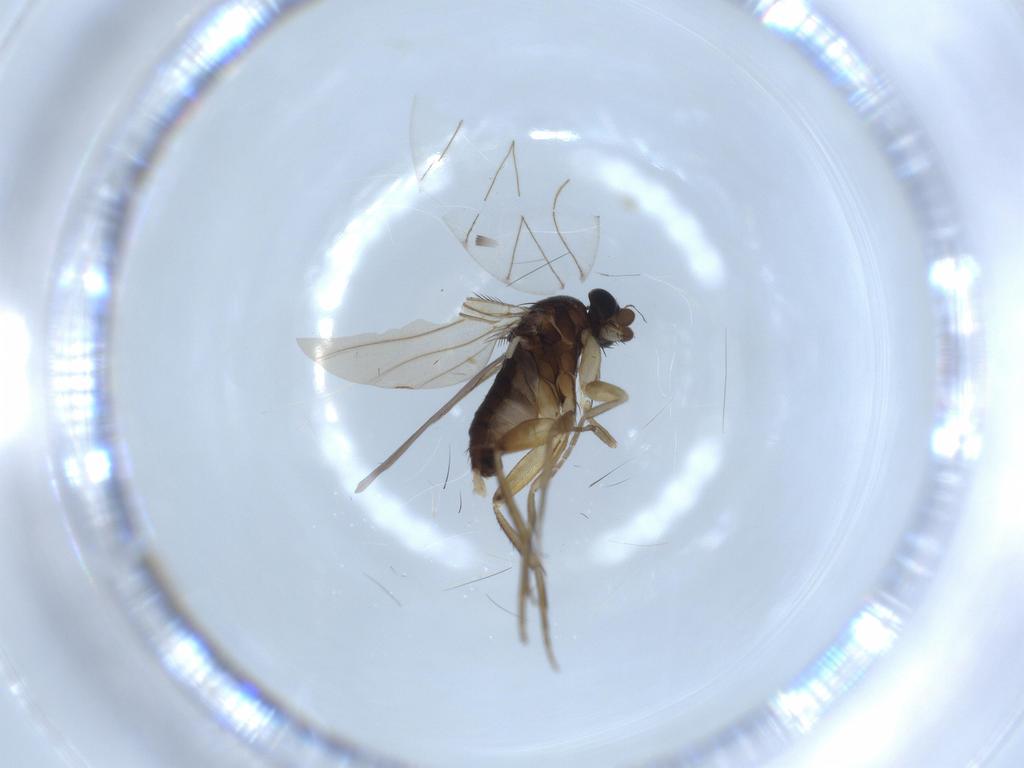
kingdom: Animalia
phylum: Arthropoda
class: Insecta
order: Diptera
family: Phoridae
